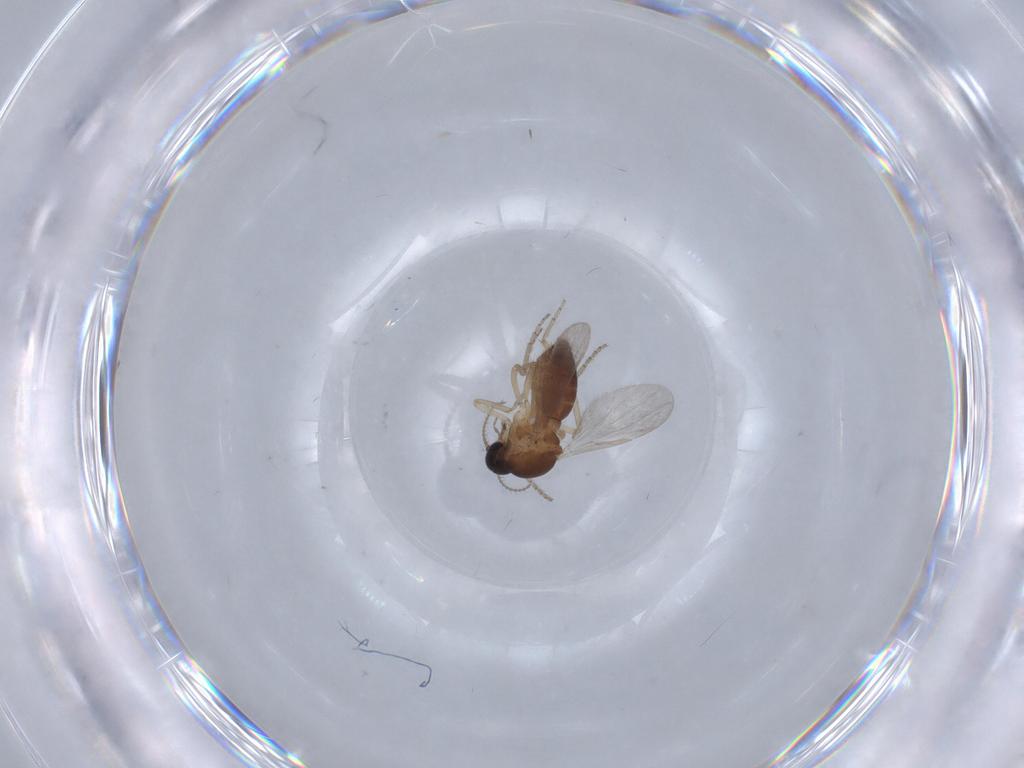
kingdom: Animalia
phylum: Arthropoda
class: Insecta
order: Diptera
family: Ceratopogonidae
